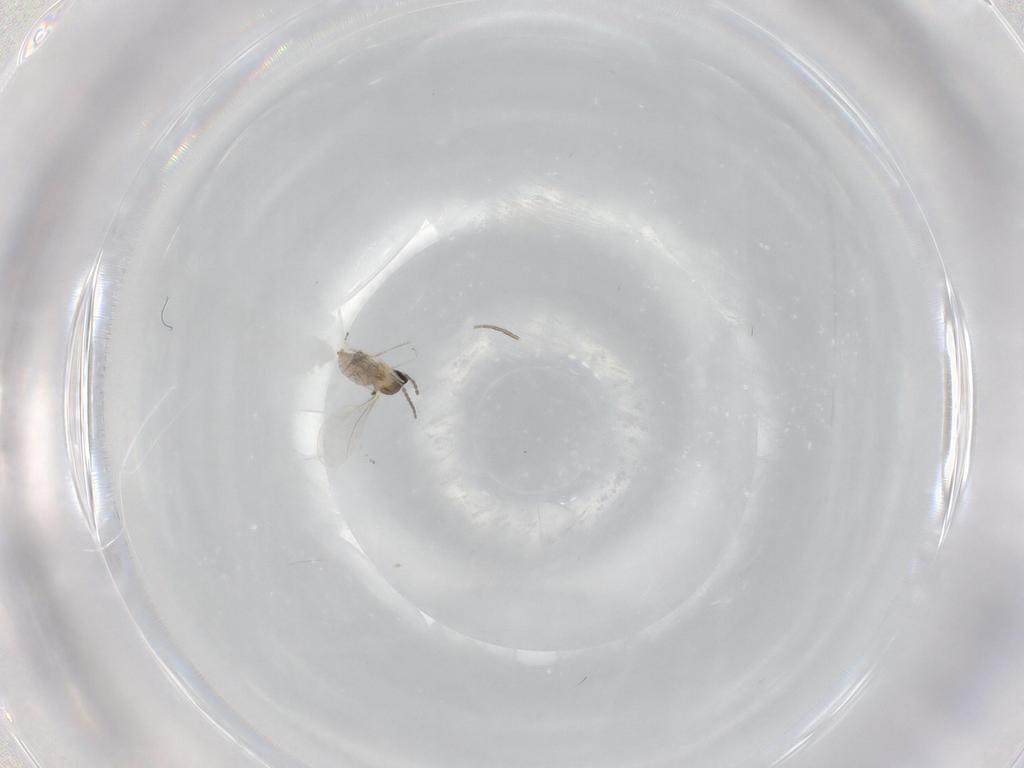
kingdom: Animalia
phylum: Arthropoda
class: Insecta
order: Diptera
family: Cecidomyiidae
